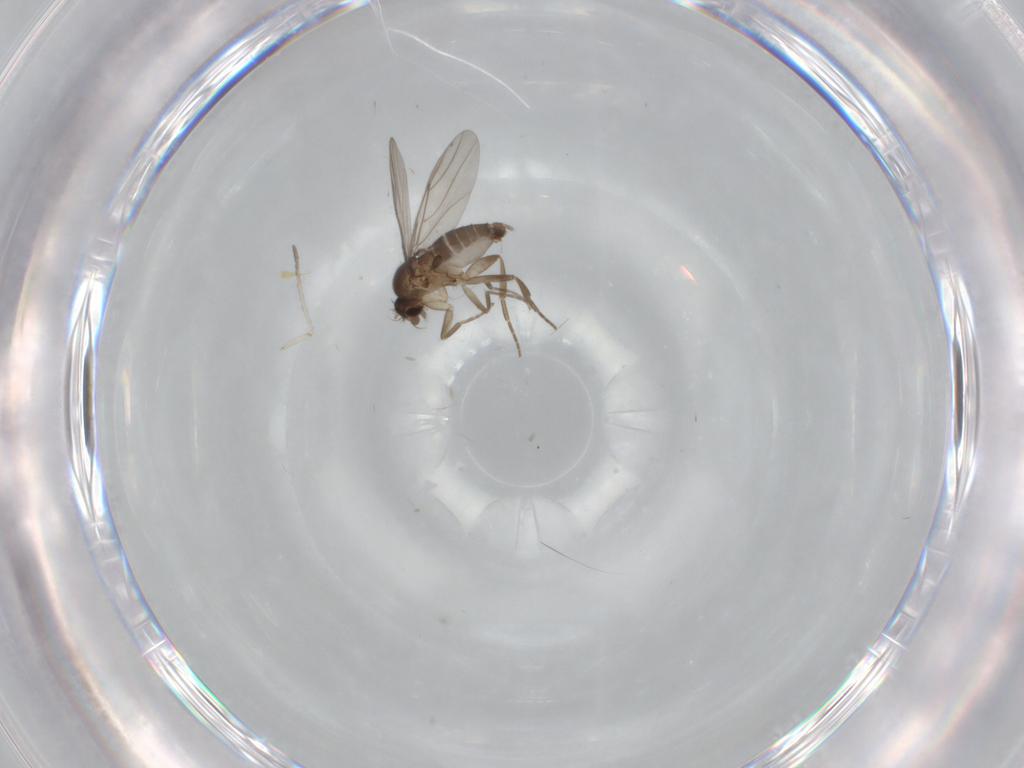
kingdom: Animalia
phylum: Arthropoda
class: Insecta
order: Diptera
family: Phoridae
